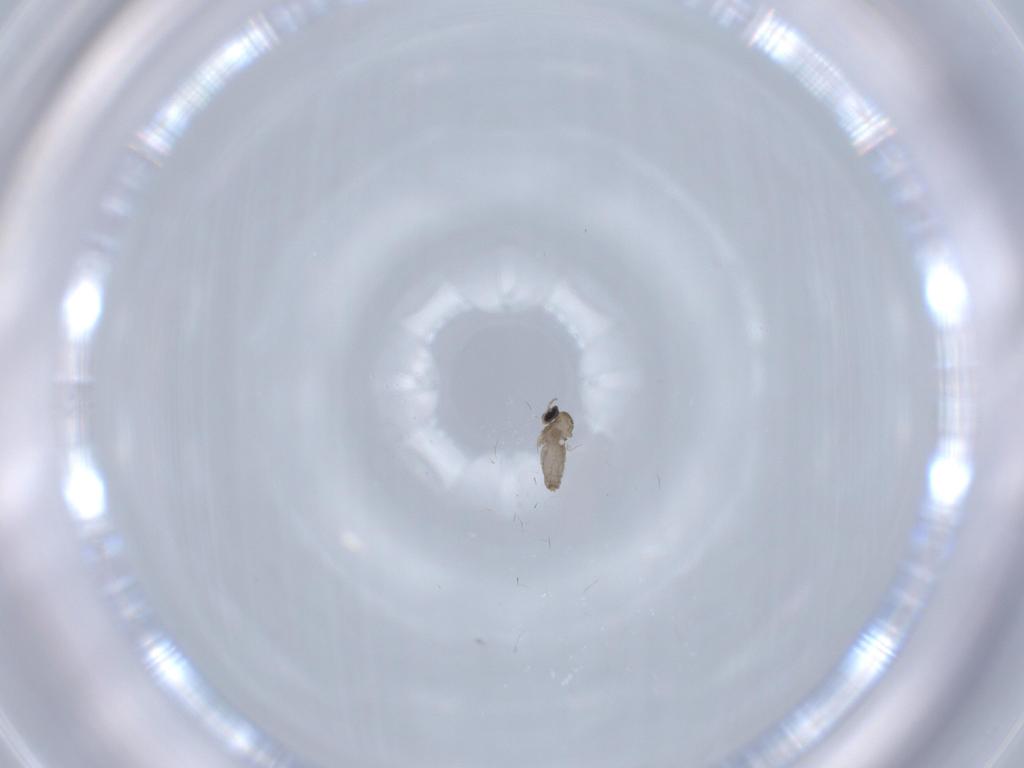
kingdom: Animalia
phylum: Arthropoda
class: Insecta
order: Diptera
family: Cecidomyiidae
